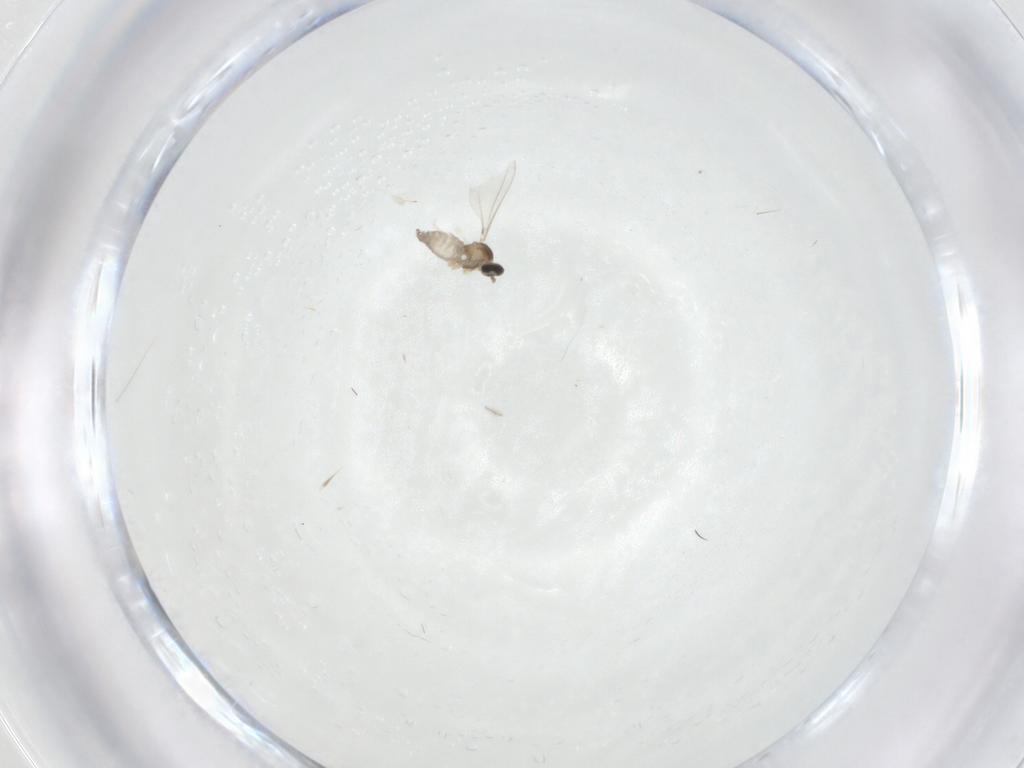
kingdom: Animalia
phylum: Arthropoda
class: Insecta
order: Diptera
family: Cecidomyiidae
